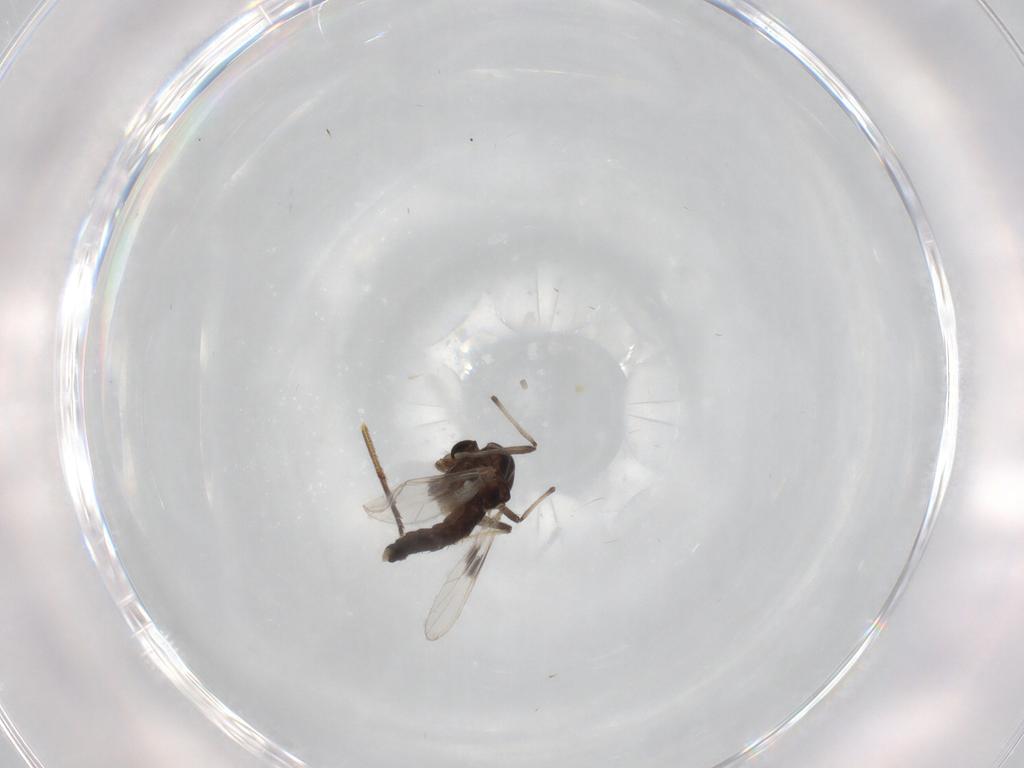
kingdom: Animalia
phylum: Arthropoda
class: Insecta
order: Diptera
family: Chironomidae
